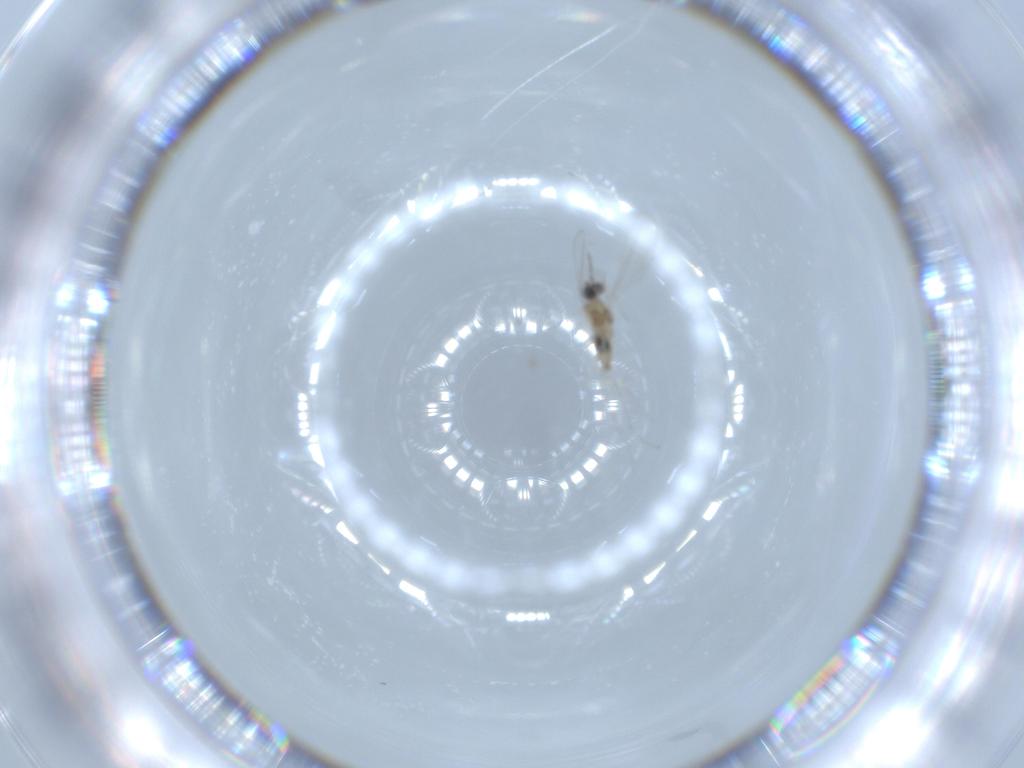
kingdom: Animalia
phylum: Arthropoda
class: Insecta
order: Diptera
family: Cecidomyiidae
